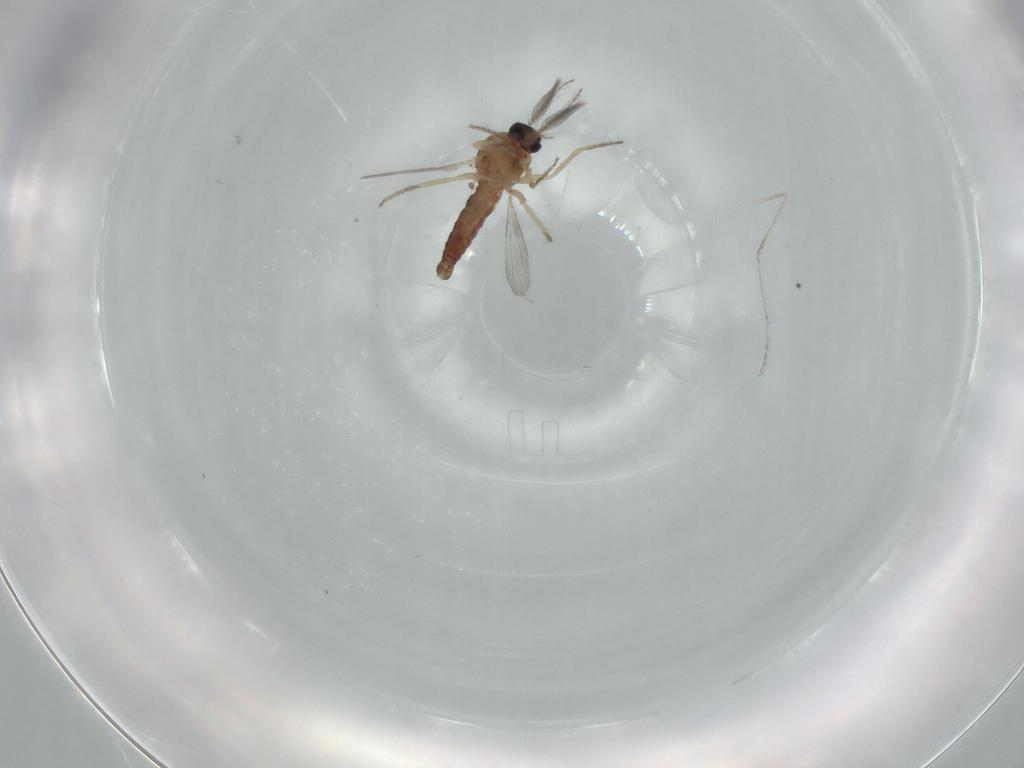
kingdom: Animalia
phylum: Arthropoda
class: Insecta
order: Diptera
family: Ceratopogonidae
